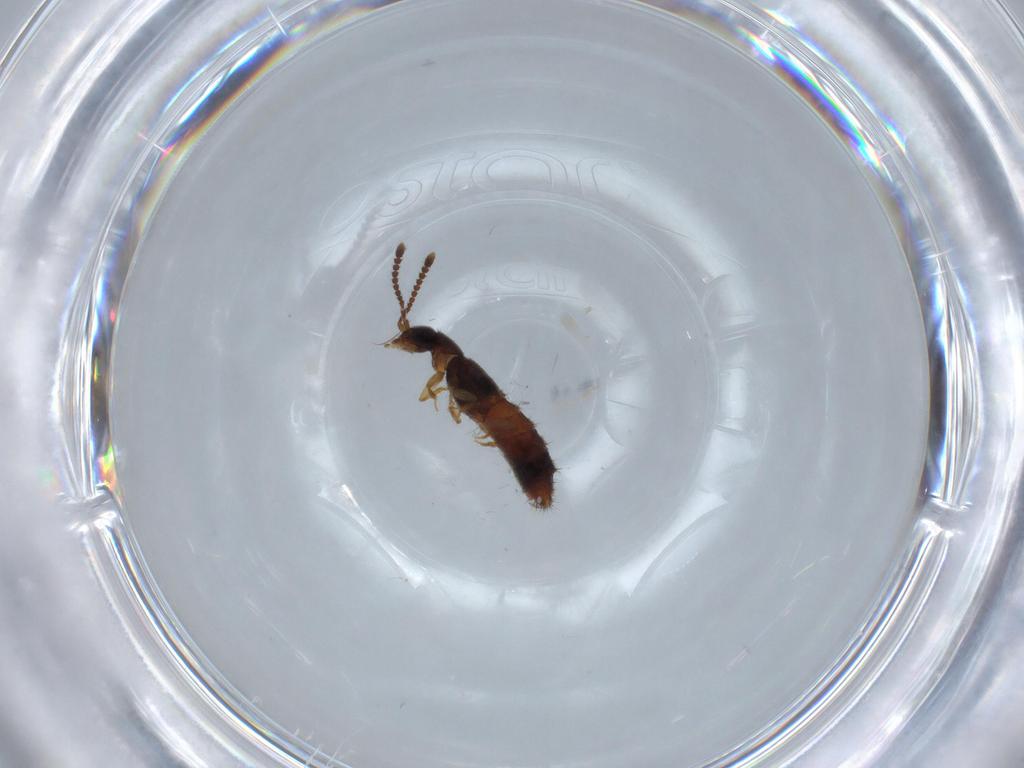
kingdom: Animalia
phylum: Arthropoda
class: Insecta
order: Coleoptera
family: Staphylinidae
